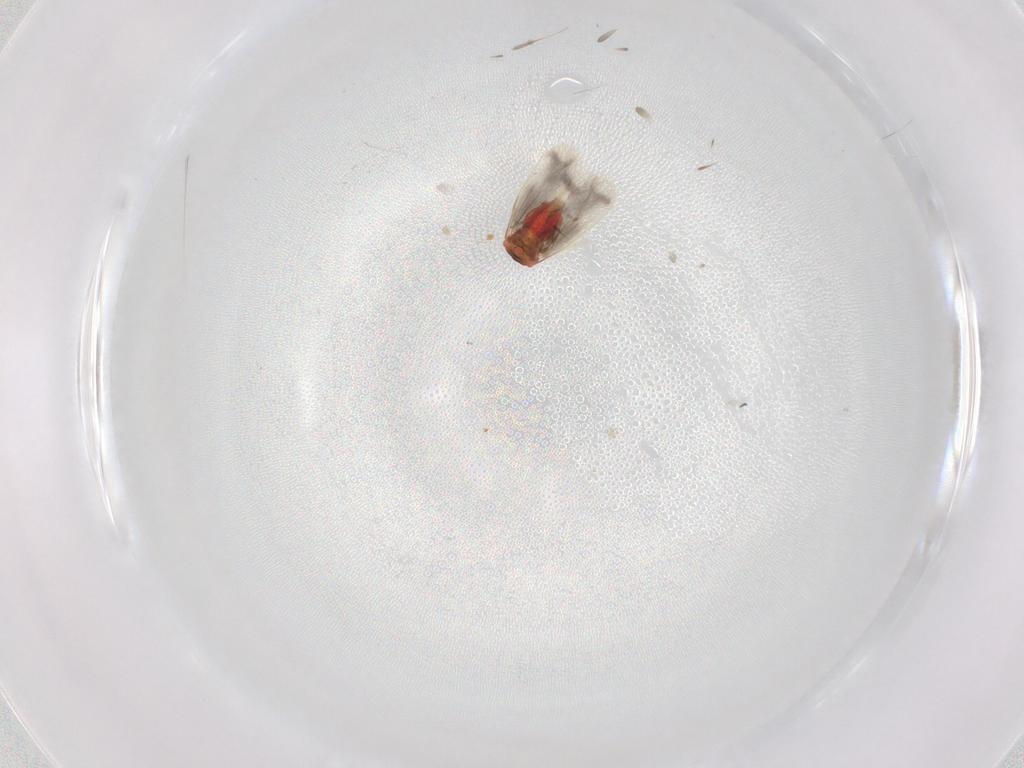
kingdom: Animalia
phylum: Arthropoda
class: Insecta
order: Hemiptera
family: Aleyrodidae
